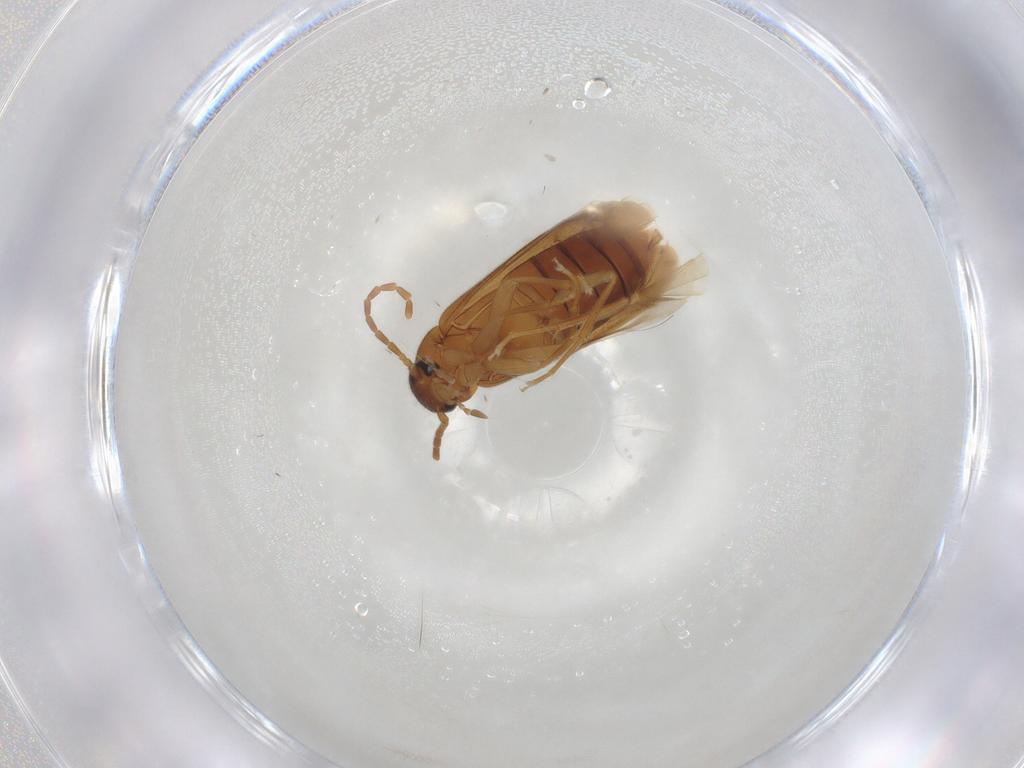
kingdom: Animalia
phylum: Arthropoda
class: Insecta
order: Coleoptera
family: Scraptiidae
